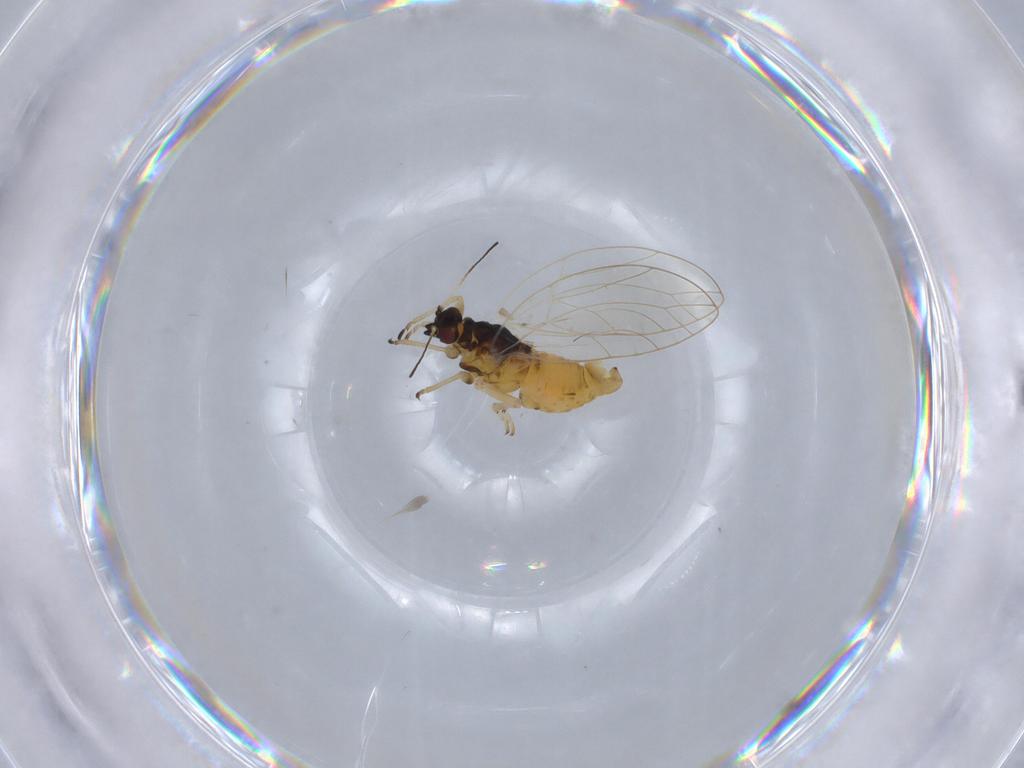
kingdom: Animalia
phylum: Arthropoda
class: Insecta
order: Hemiptera
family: Triozidae
